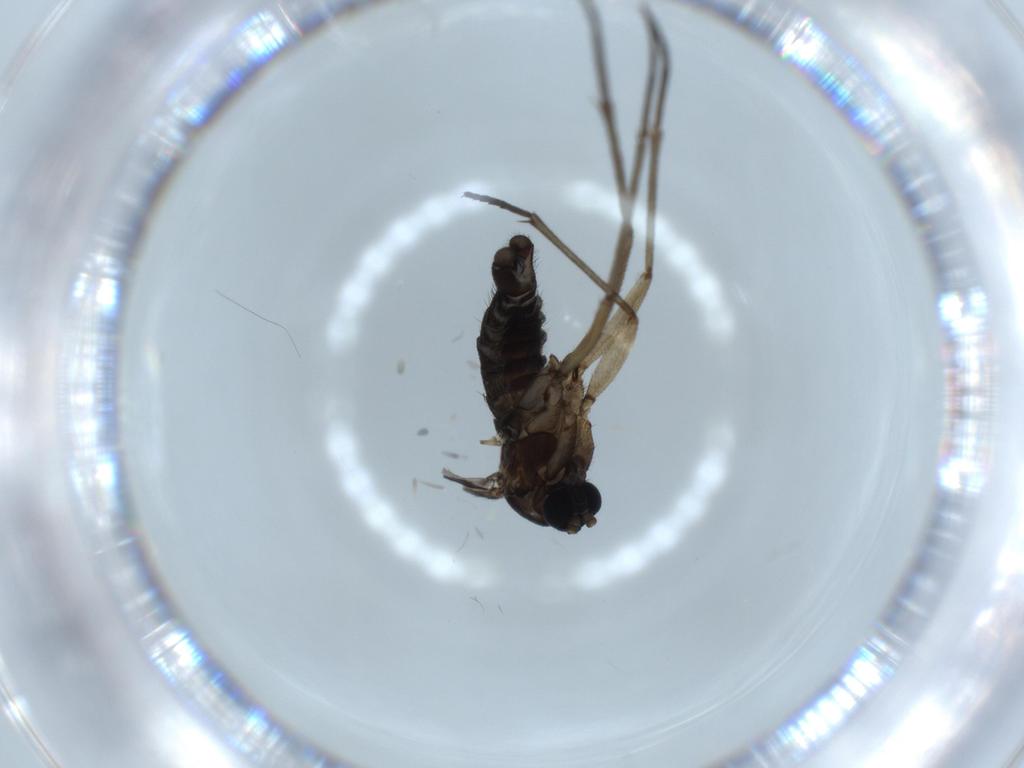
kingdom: Animalia
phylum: Arthropoda
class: Insecta
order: Diptera
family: Sciaridae
